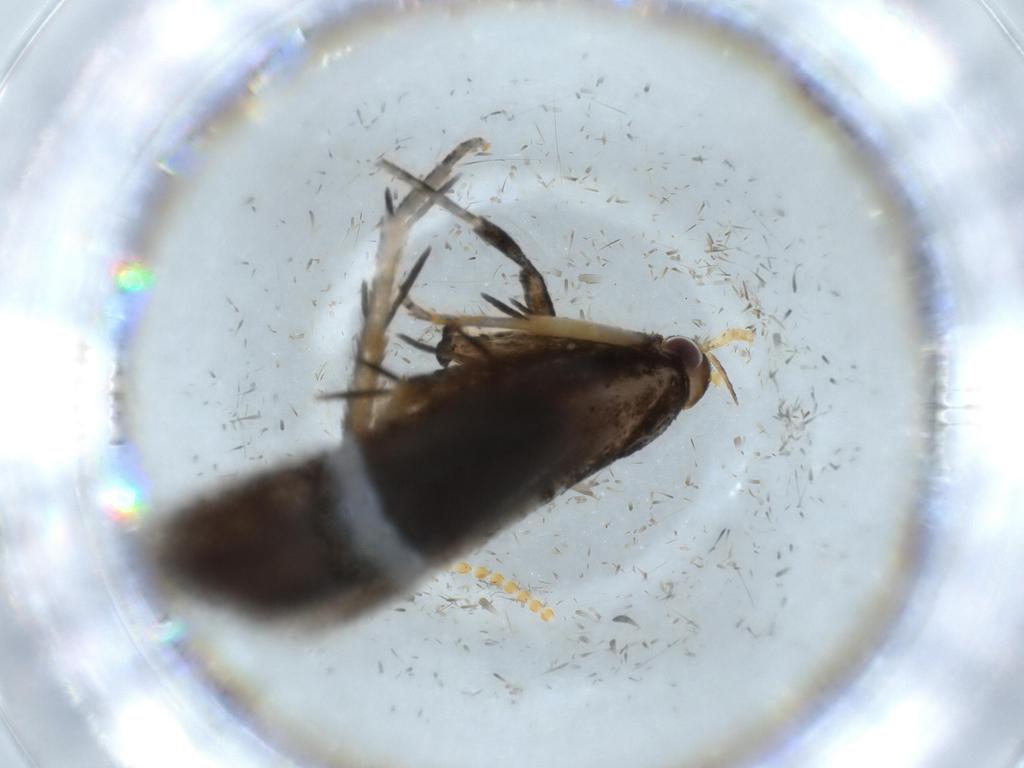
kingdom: Animalia
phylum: Arthropoda
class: Insecta
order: Lepidoptera
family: Lecithoceridae
